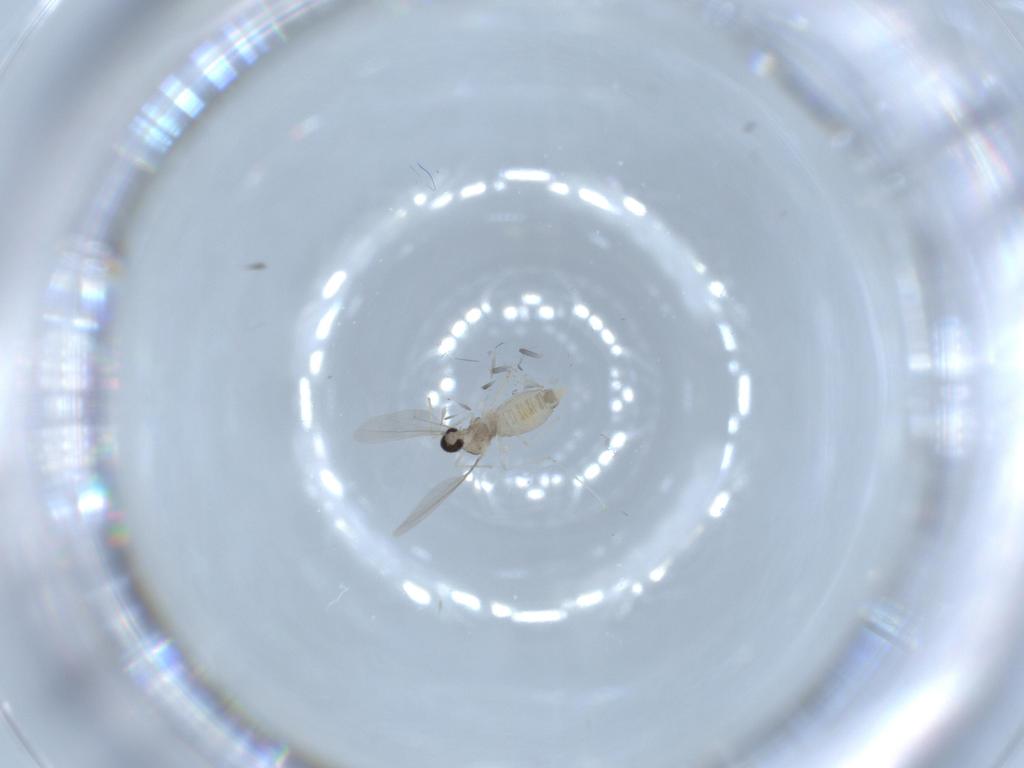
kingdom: Animalia
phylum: Arthropoda
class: Insecta
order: Diptera
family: Cecidomyiidae
